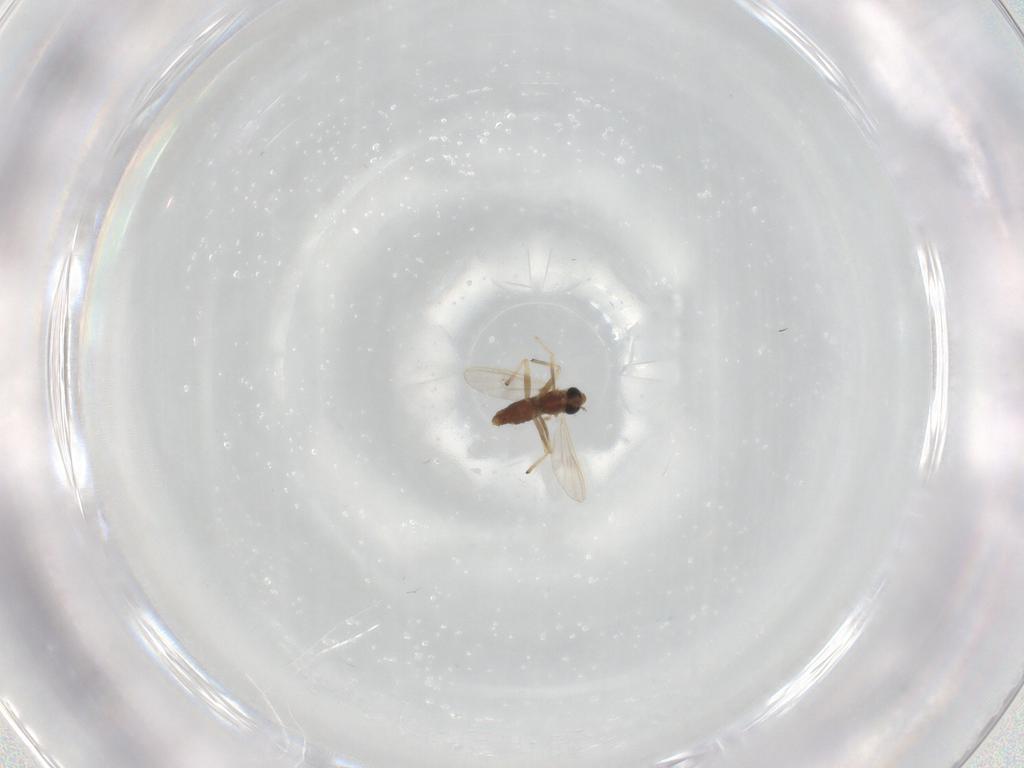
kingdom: Animalia
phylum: Arthropoda
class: Insecta
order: Diptera
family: Chironomidae
